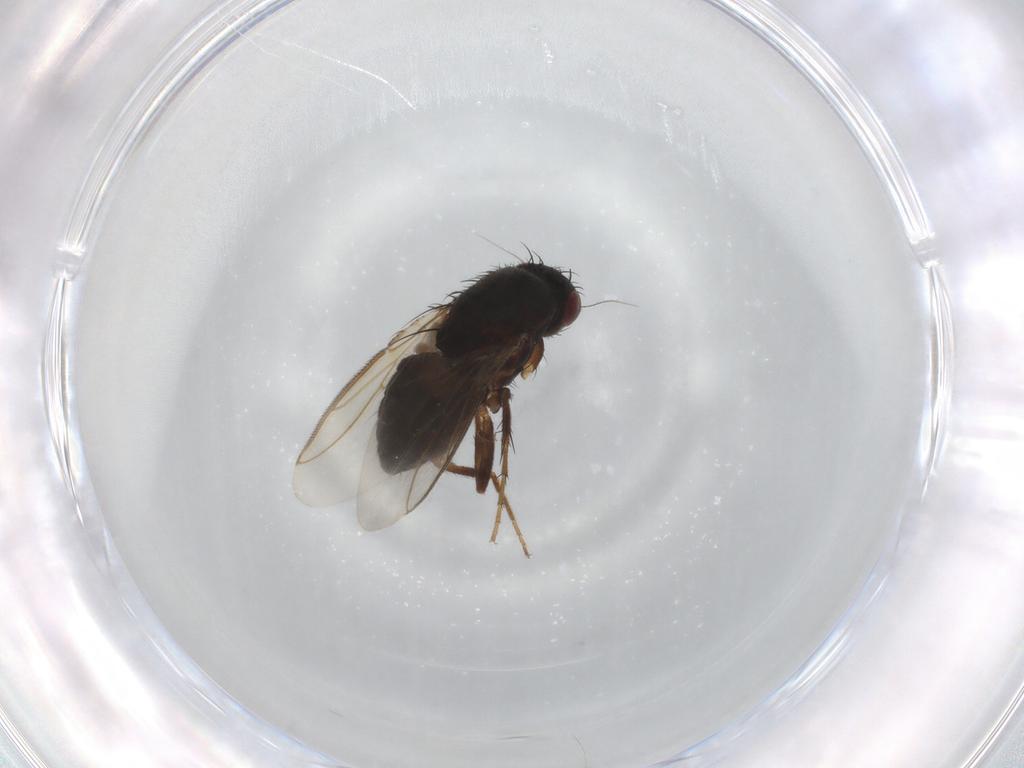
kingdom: Animalia
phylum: Arthropoda
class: Insecta
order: Diptera
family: Sphaeroceridae
